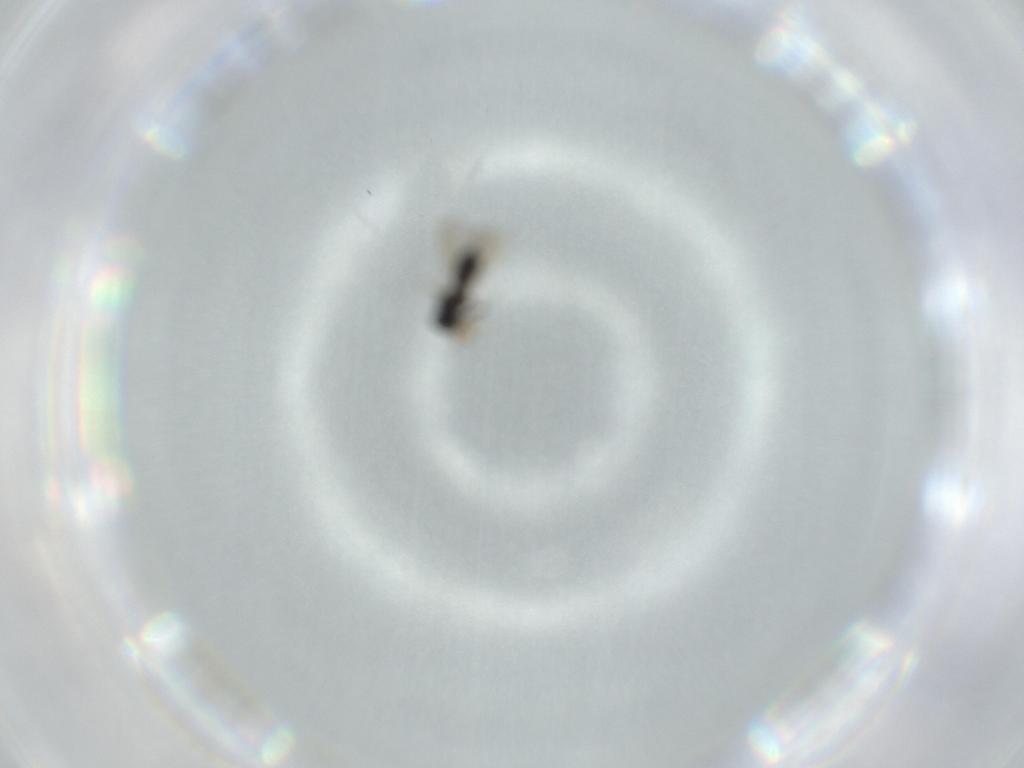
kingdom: Animalia
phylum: Arthropoda
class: Insecta
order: Hymenoptera
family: Scelionidae
